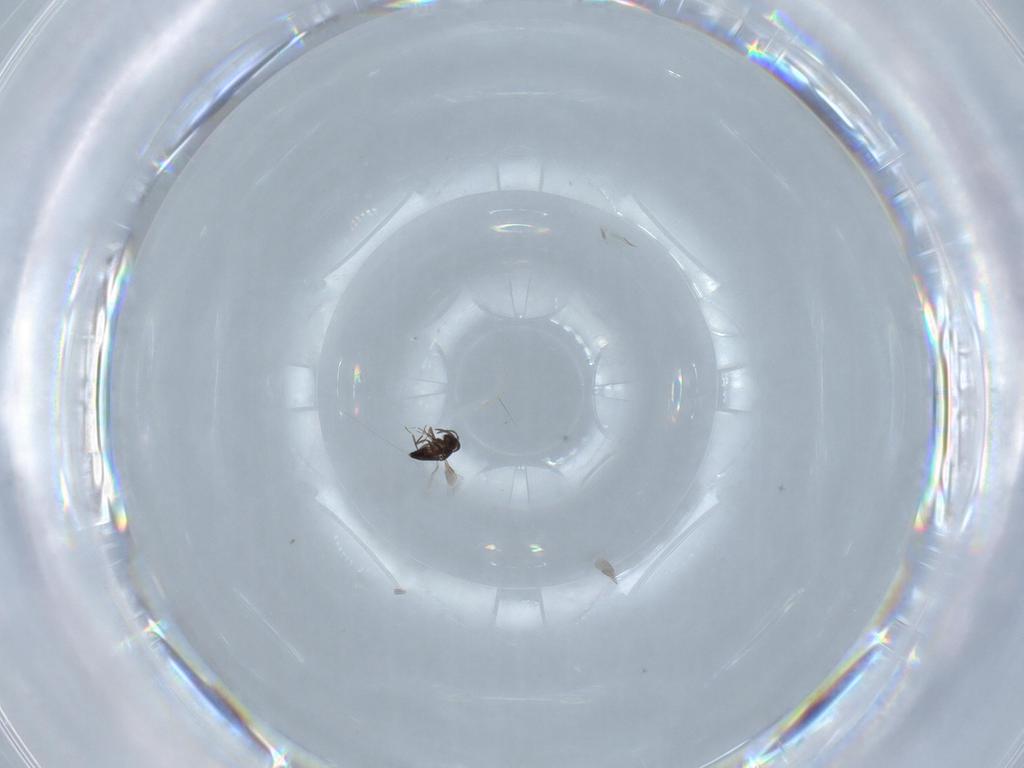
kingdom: Animalia
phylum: Arthropoda
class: Insecta
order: Hymenoptera
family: Signiphoridae
